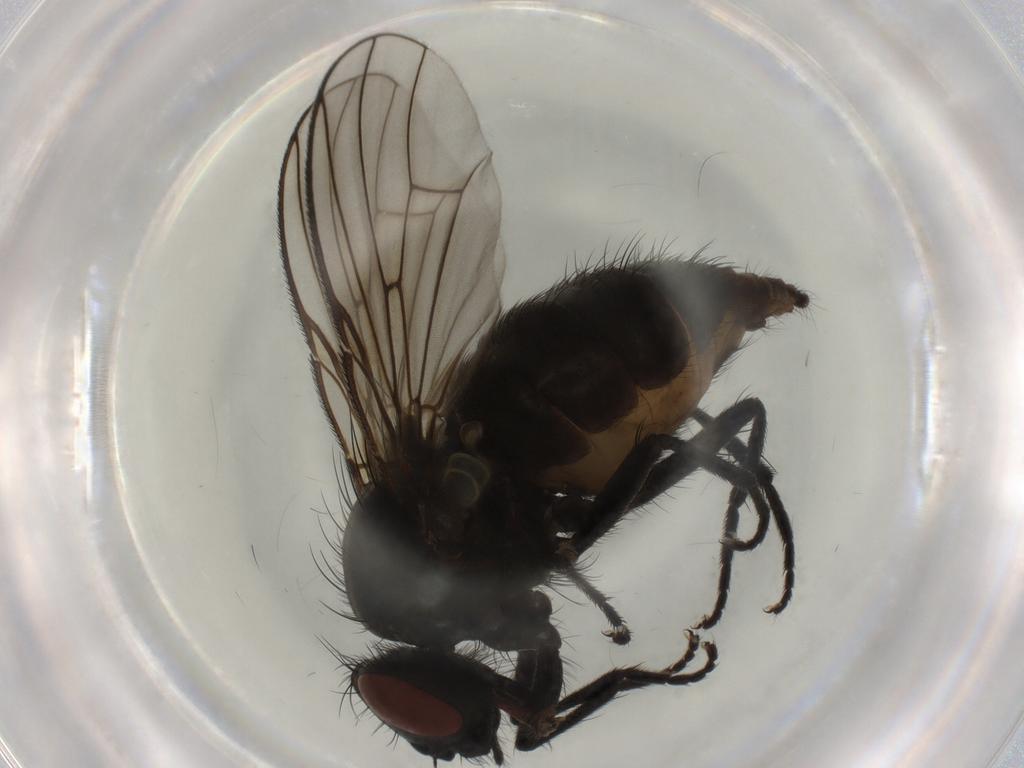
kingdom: Animalia
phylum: Arthropoda
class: Insecta
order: Diptera
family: Muscidae
